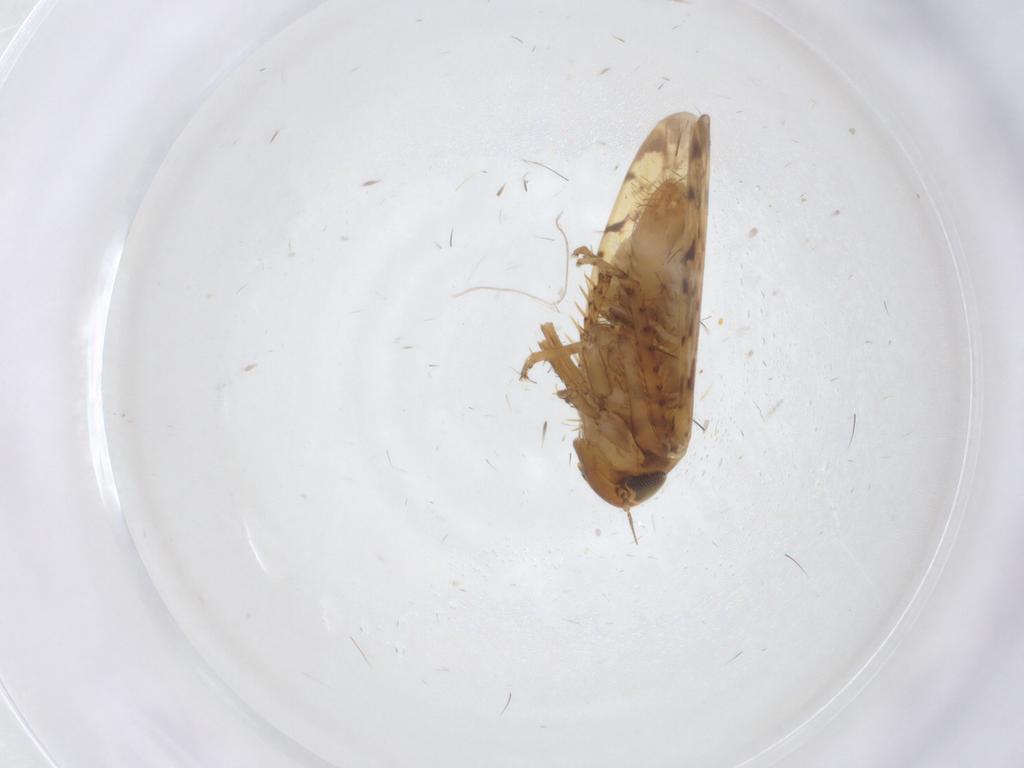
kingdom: Animalia
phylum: Arthropoda
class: Insecta
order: Hemiptera
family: Cicadellidae
